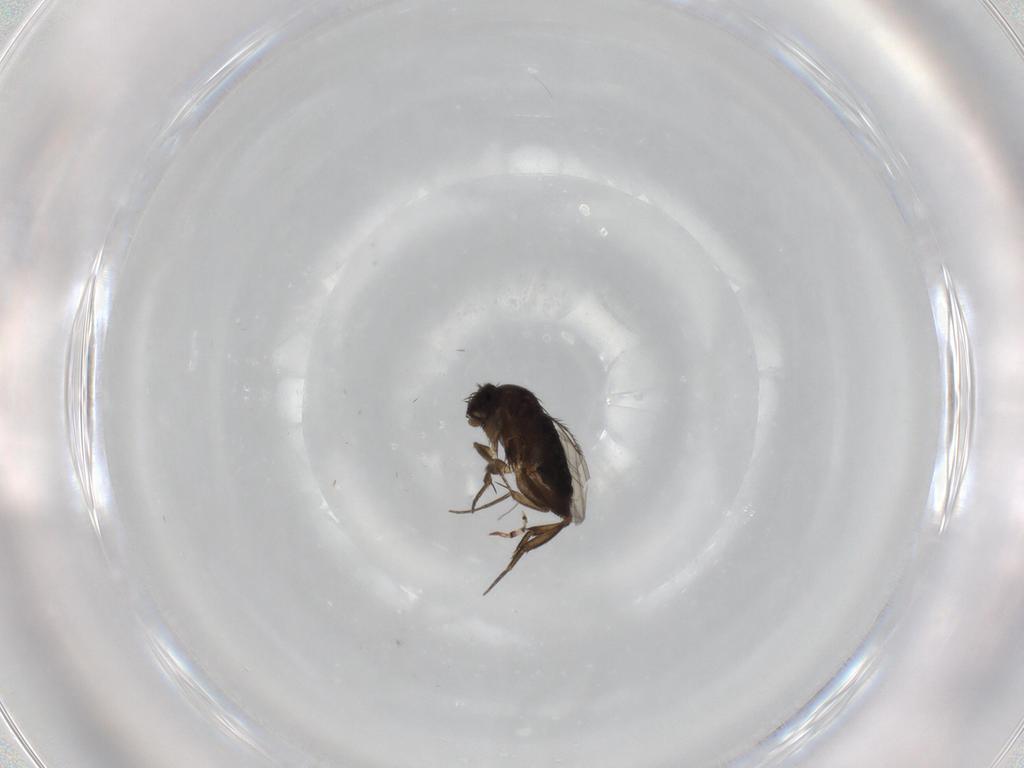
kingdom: Animalia
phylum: Arthropoda
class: Insecta
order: Diptera
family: Phoridae
